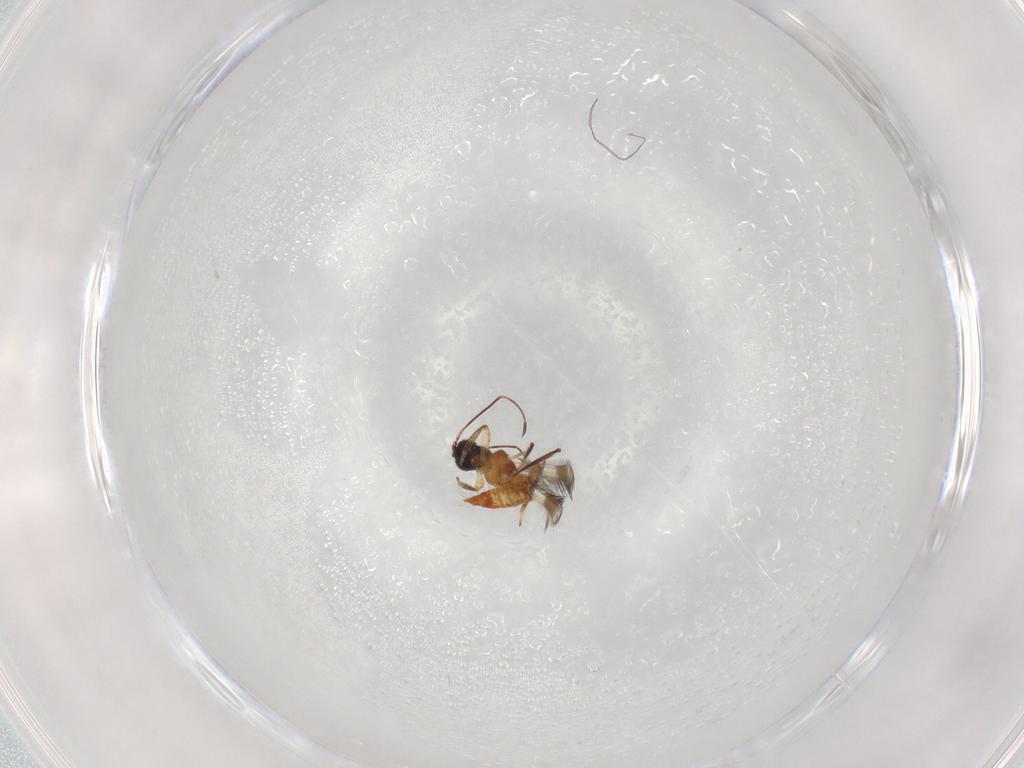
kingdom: Animalia
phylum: Arthropoda
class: Insecta
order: Thysanoptera
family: Aeolothripidae
